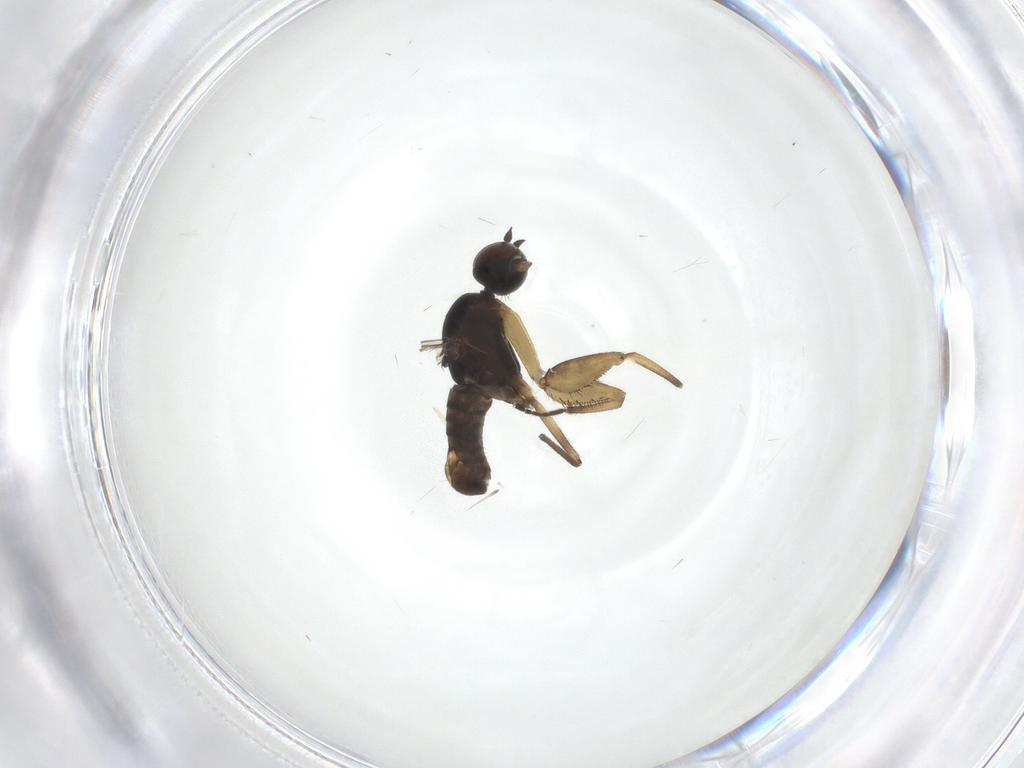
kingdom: Animalia
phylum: Arthropoda
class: Insecta
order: Diptera
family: Empididae
